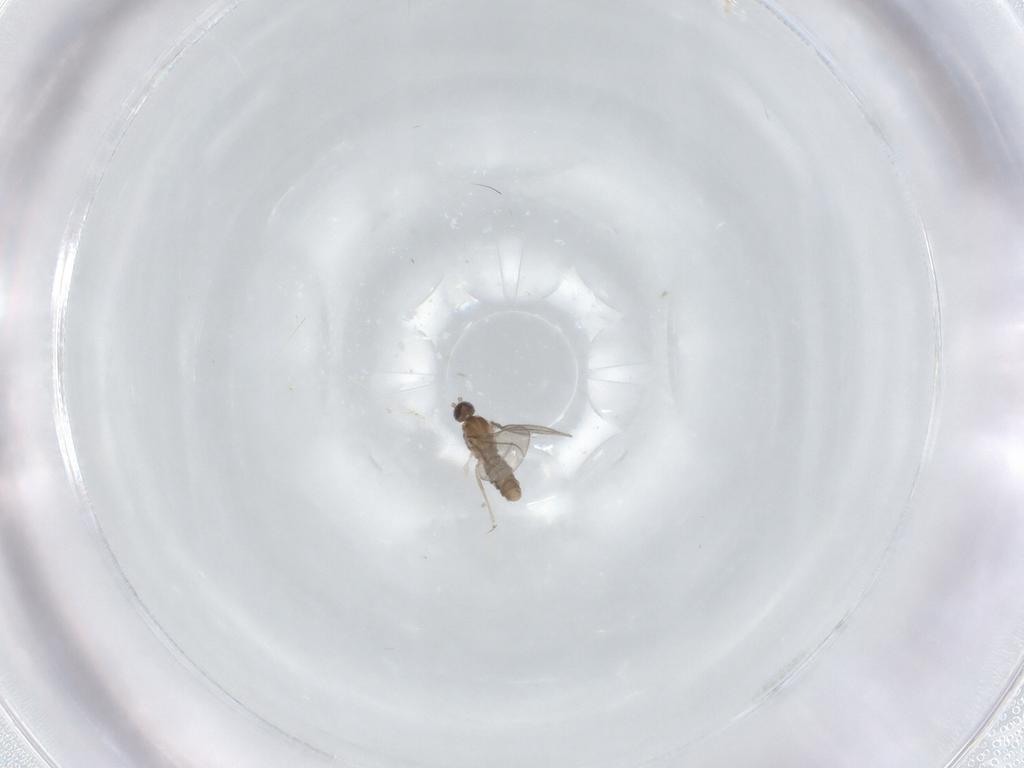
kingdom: Animalia
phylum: Arthropoda
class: Insecta
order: Diptera
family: Cecidomyiidae
